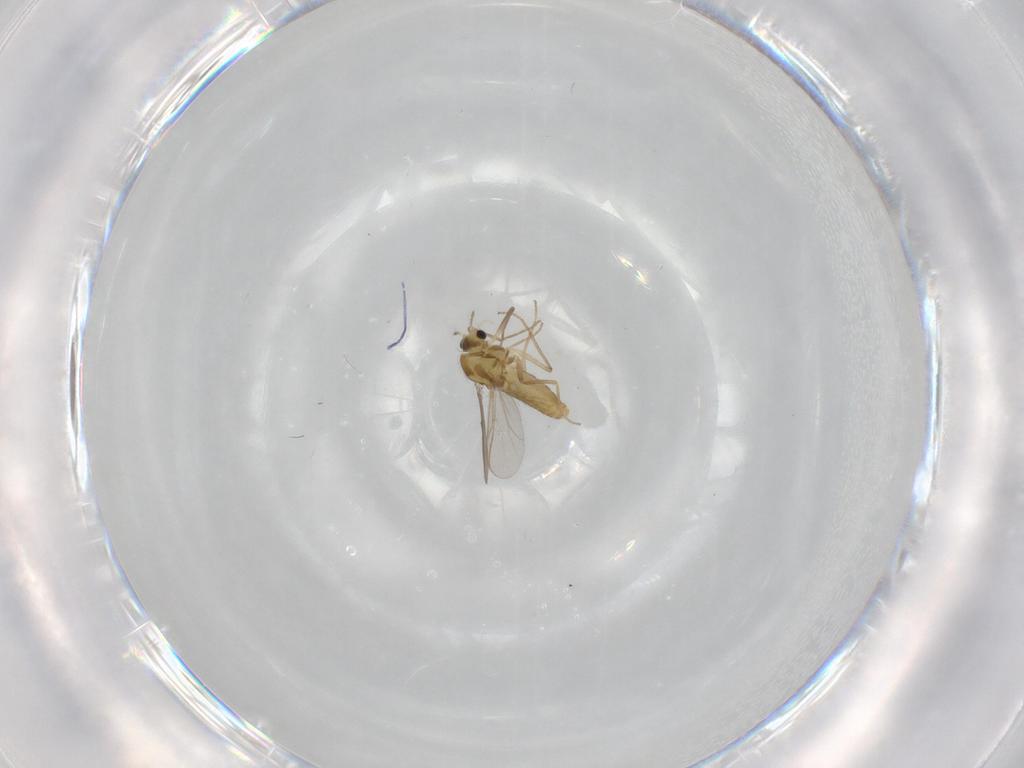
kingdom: Animalia
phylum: Arthropoda
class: Insecta
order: Diptera
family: Chironomidae
